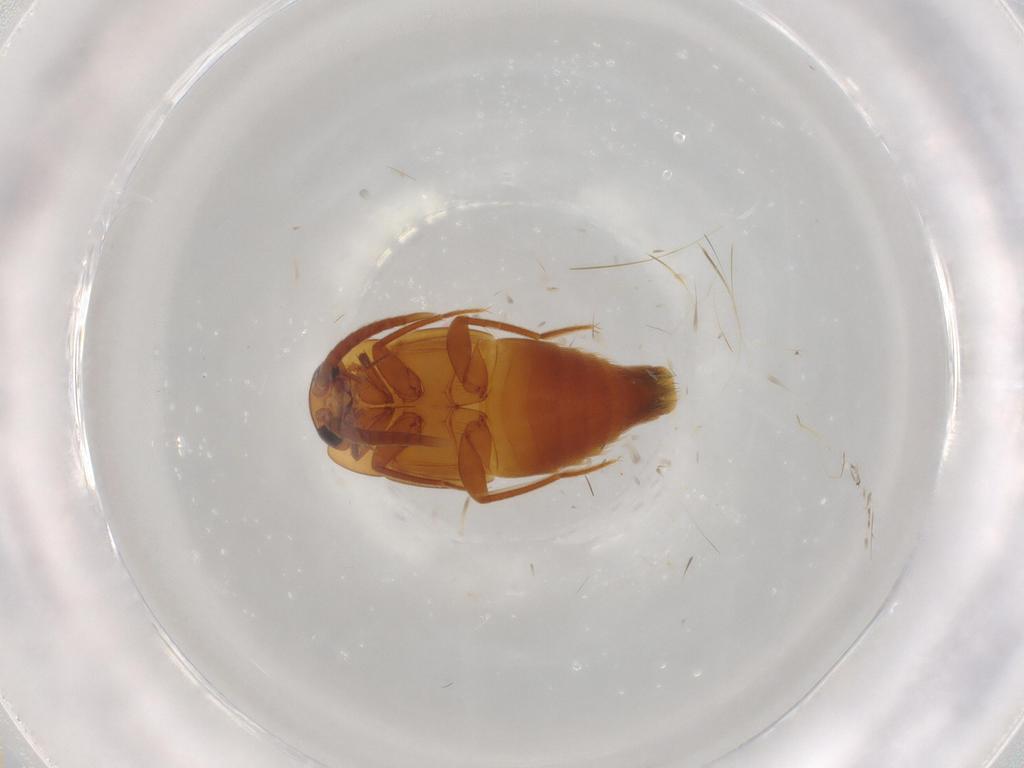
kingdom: Animalia
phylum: Arthropoda
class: Insecta
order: Coleoptera
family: Staphylinidae
